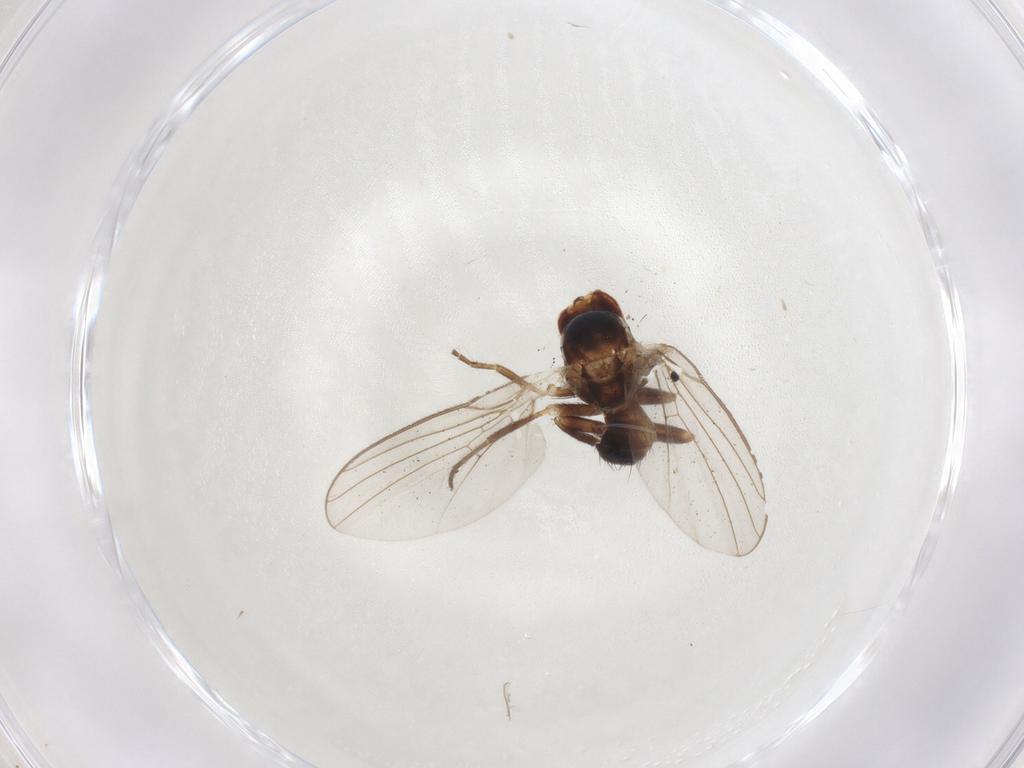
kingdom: Animalia
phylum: Arthropoda
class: Insecta
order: Diptera
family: Agromyzidae
